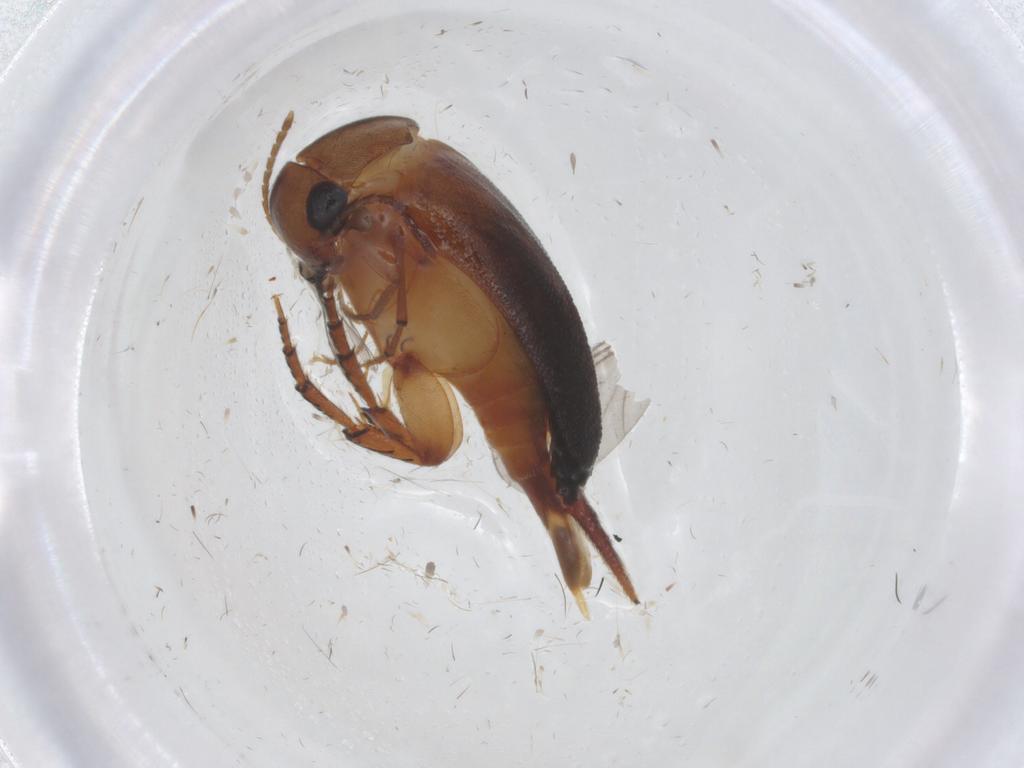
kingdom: Animalia
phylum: Arthropoda
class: Insecta
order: Coleoptera
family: Mordellidae
